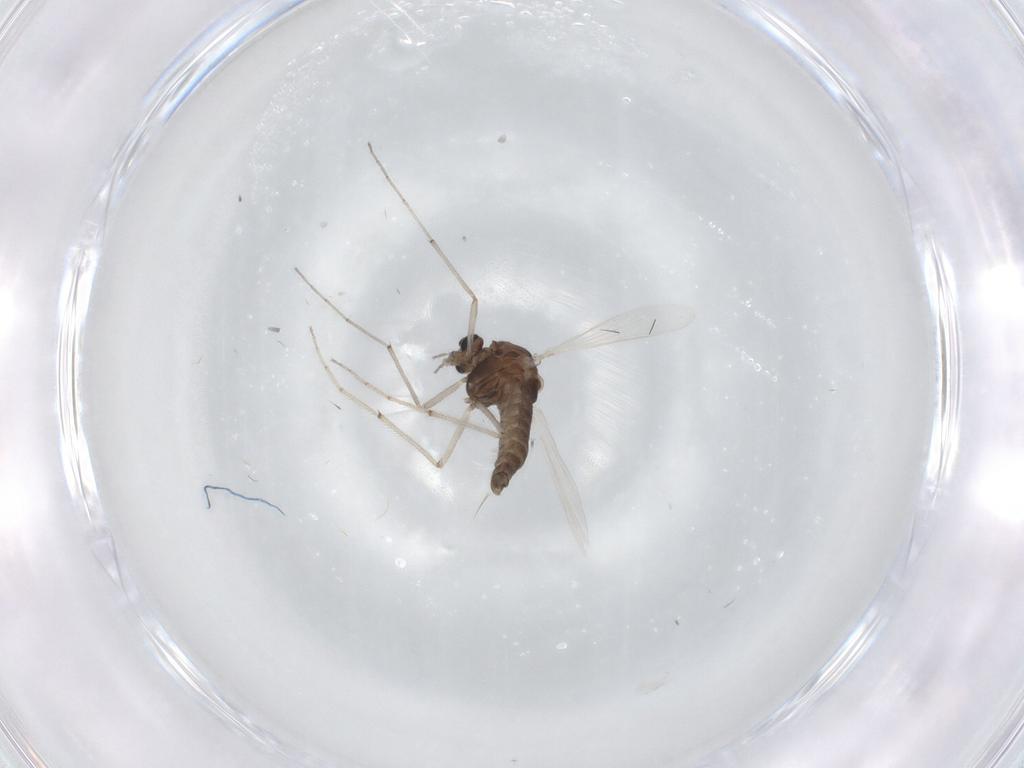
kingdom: Animalia
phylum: Arthropoda
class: Insecta
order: Diptera
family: Chironomidae
